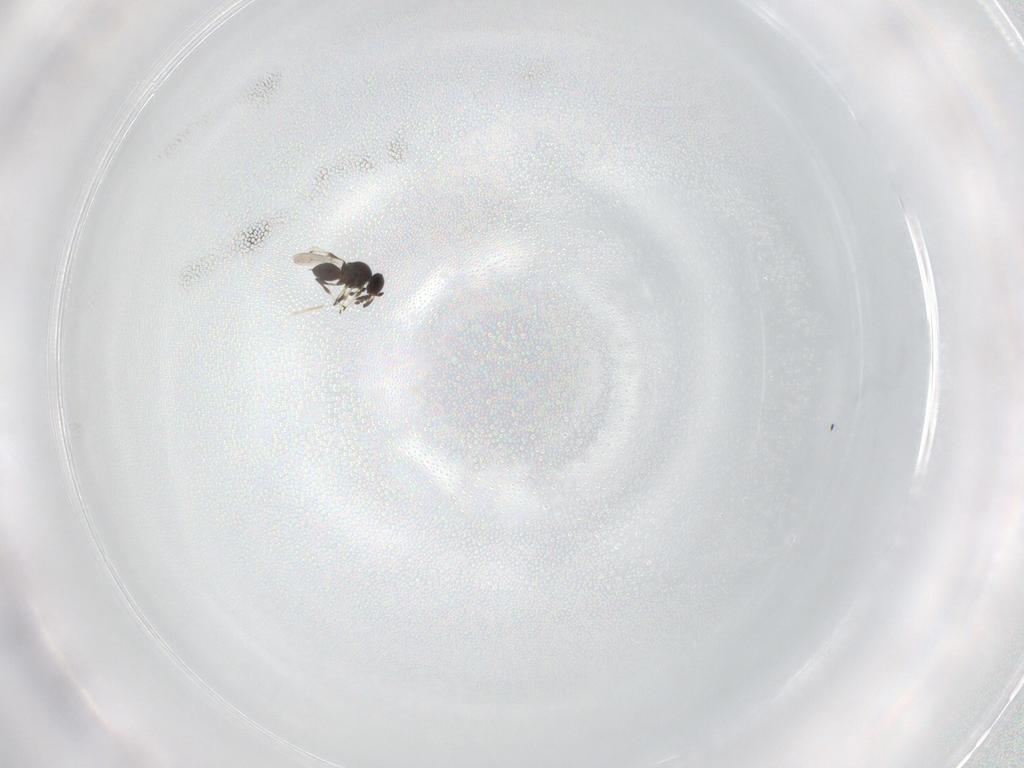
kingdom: Animalia
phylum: Arthropoda
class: Insecta
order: Hymenoptera
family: Platygastridae
